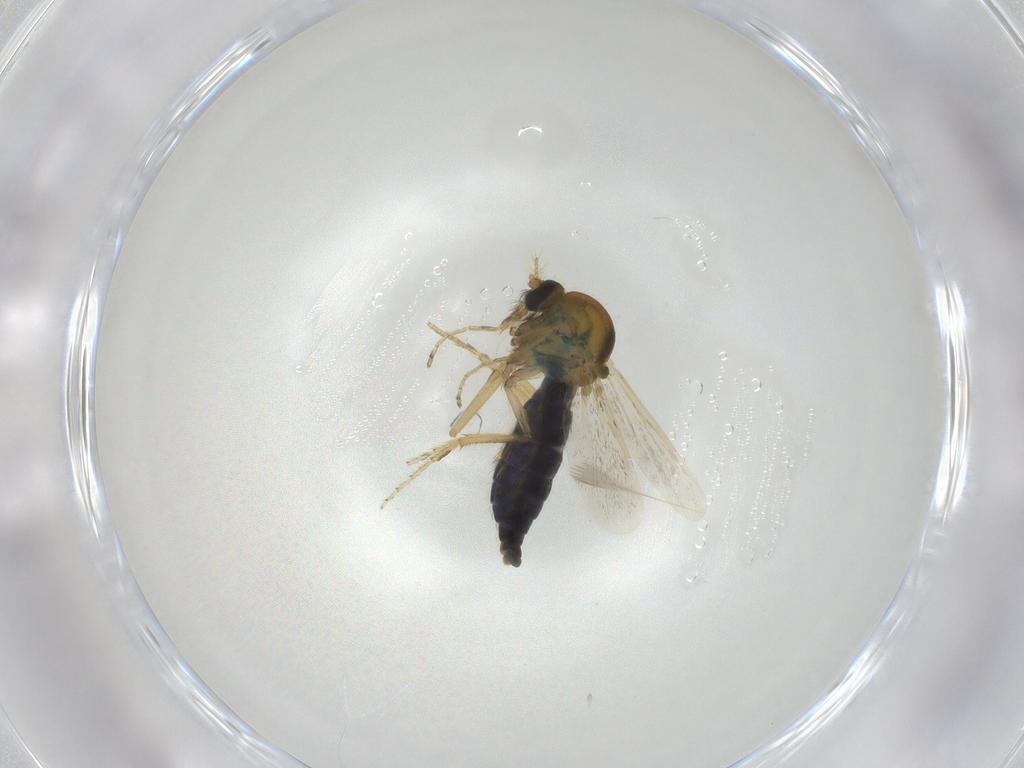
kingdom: Animalia
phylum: Arthropoda
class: Insecta
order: Diptera
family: Ceratopogonidae
